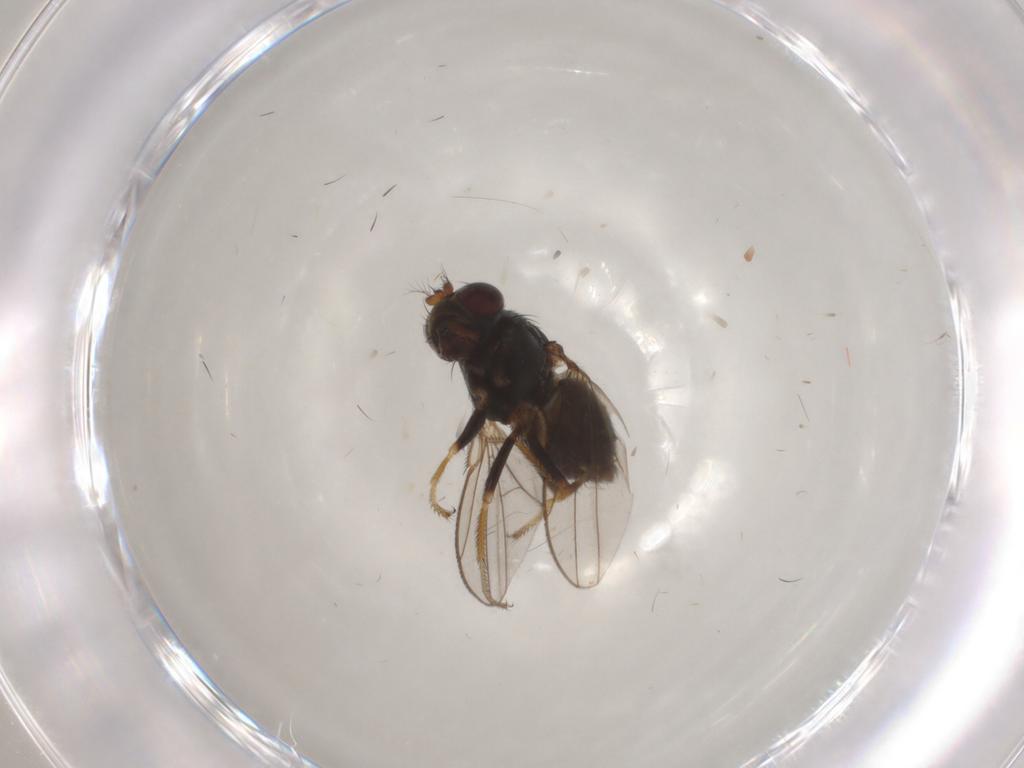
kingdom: Animalia
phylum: Arthropoda
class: Insecta
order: Diptera
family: Ephydridae
